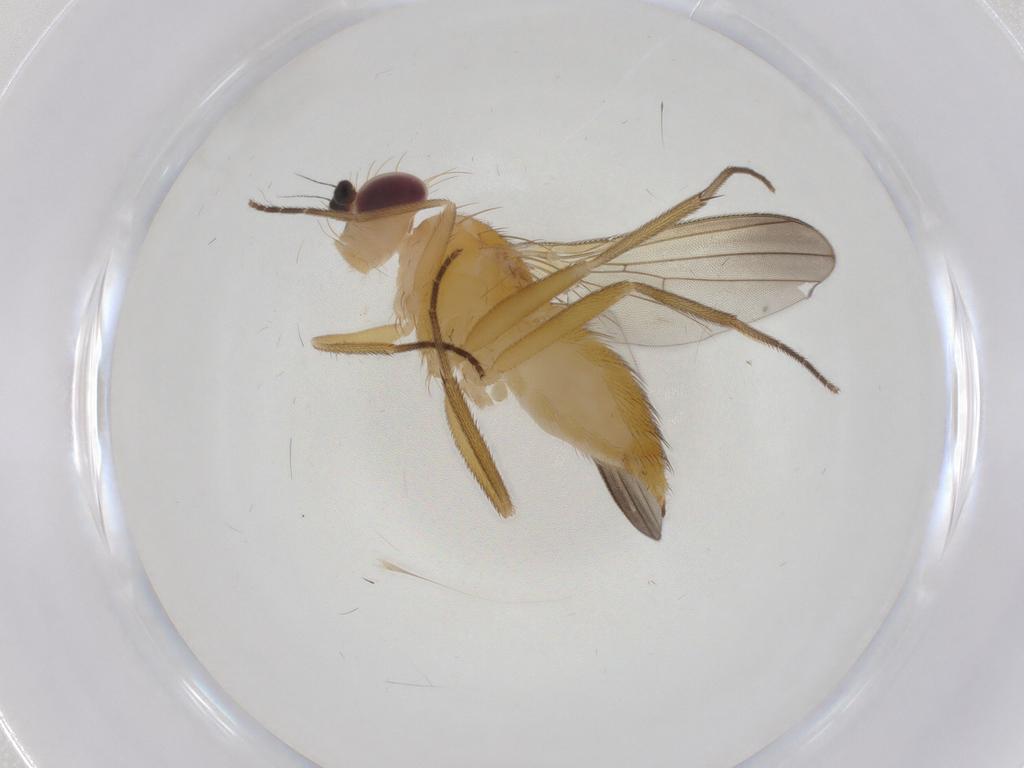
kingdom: Animalia
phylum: Arthropoda
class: Insecta
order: Diptera
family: Clusiidae
